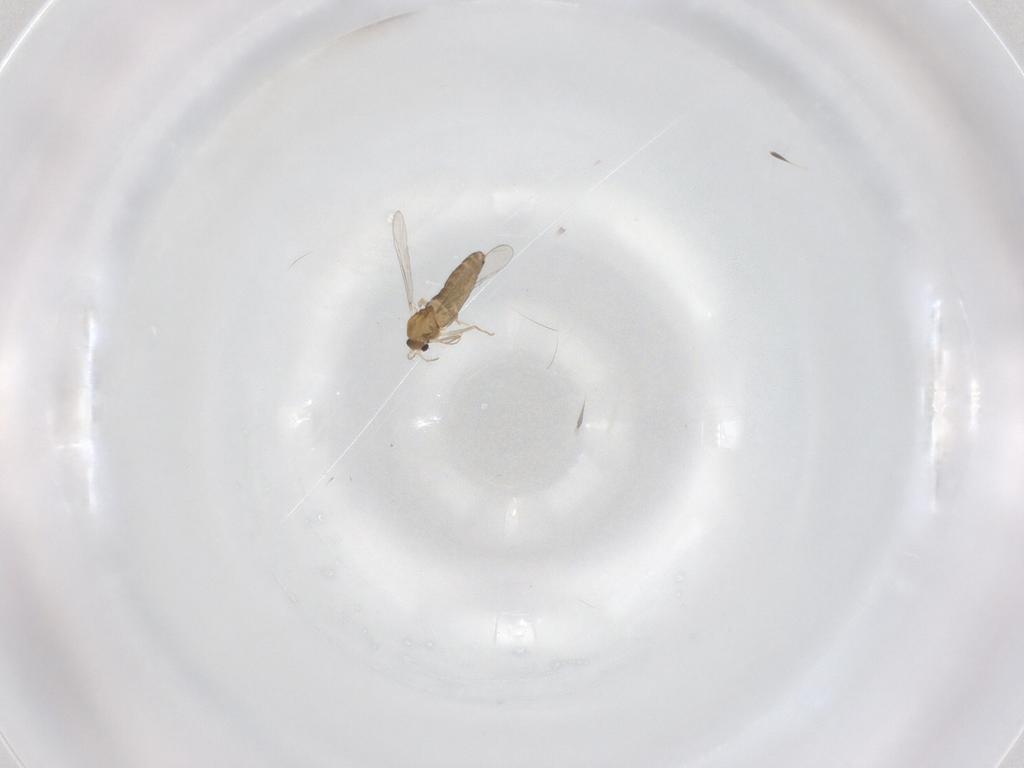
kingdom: Animalia
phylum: Arthropoda
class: Insecta
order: Diptera
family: Chironomidae
